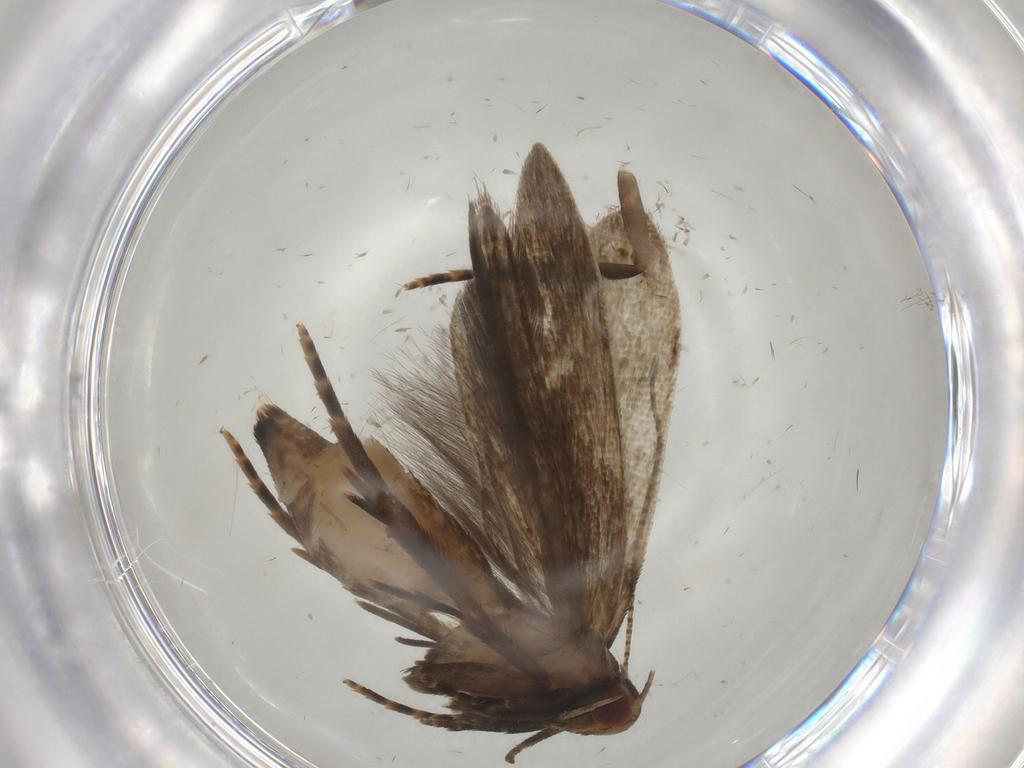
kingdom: Animalia
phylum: Arthropoda
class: Insecta
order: Lepidoptera
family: Gelechiidae
